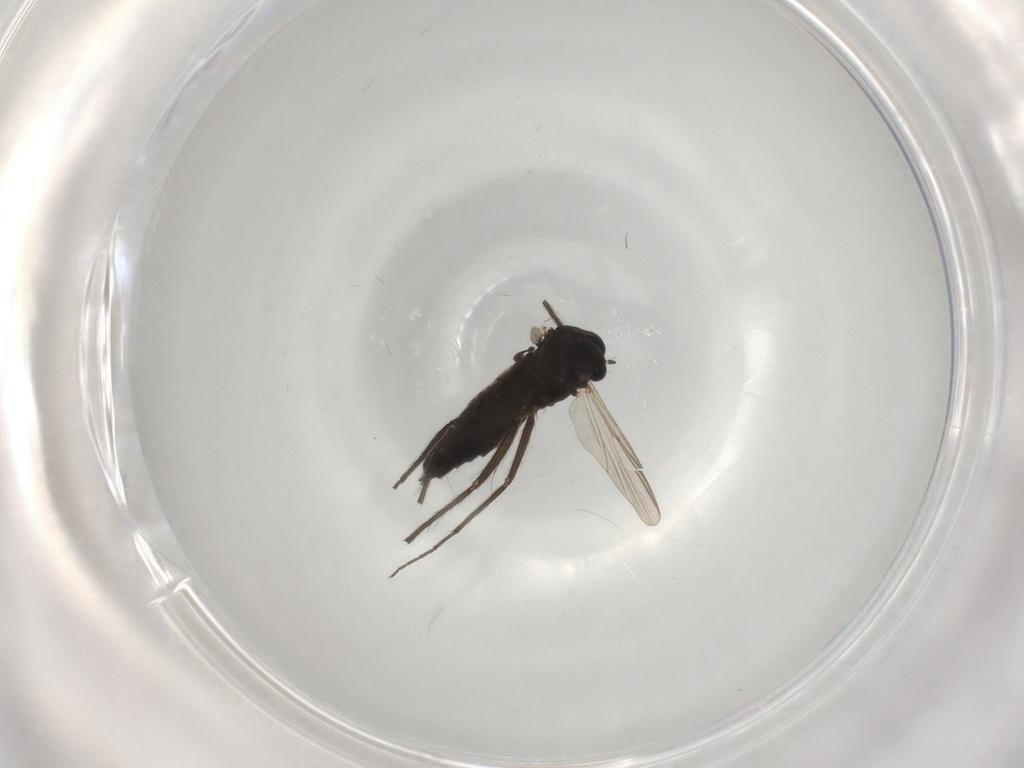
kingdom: Animalia
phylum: Arthropoda
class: Insecta
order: Diptera
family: Chironomidae
